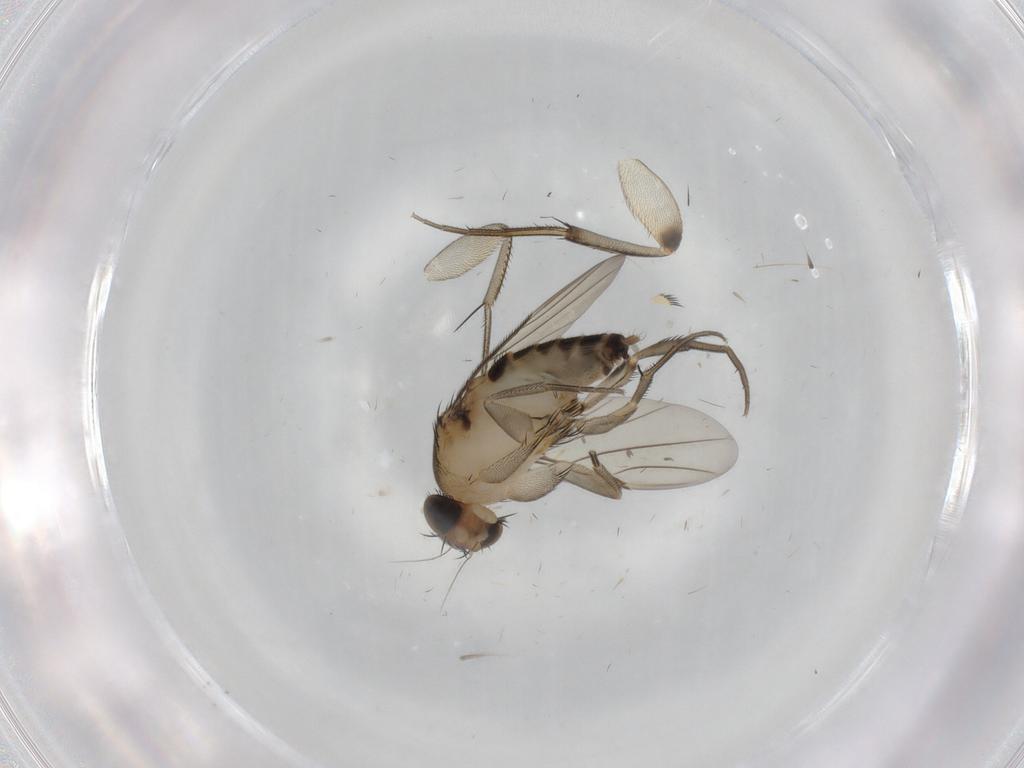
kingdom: Animalia
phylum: Arthropoda
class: Insecta
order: Diptera
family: Phoridae
